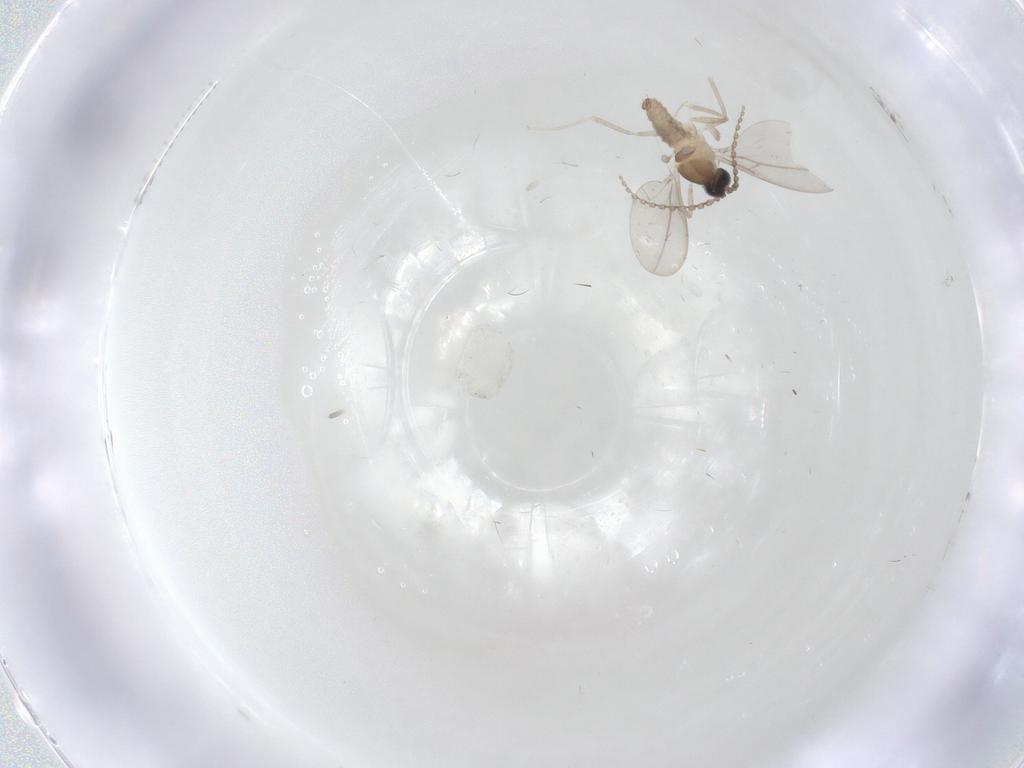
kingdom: Animalia
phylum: Arthropoda
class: Insecta
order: Diptera
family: Cecidomyiidae
